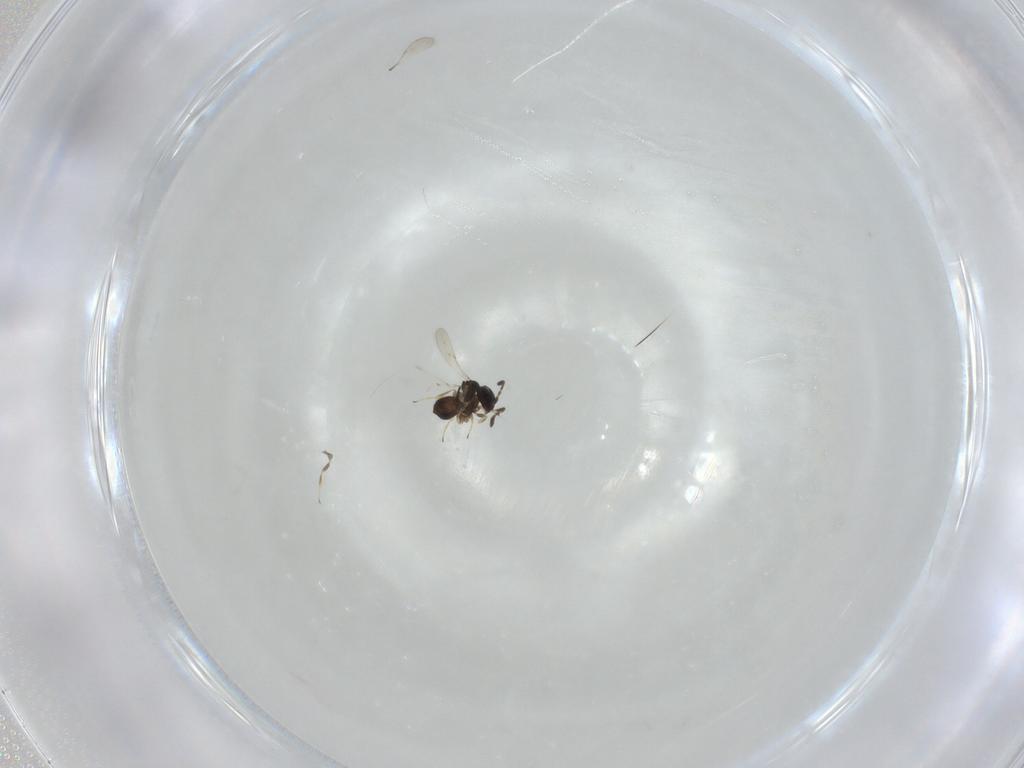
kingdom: Animalia
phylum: Arthropoda
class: Insecta
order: Hymenoptera
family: Scelionidae
